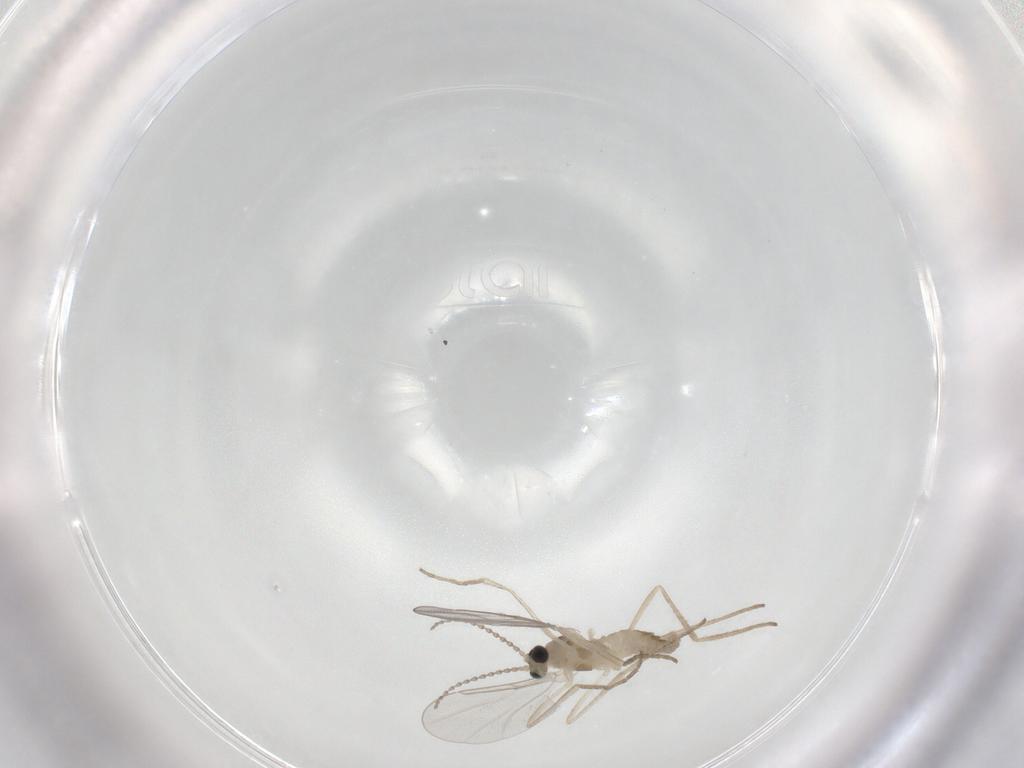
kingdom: Animalia
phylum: Arthropoda
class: Insecta
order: Diptera
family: Cecidomyiidae
